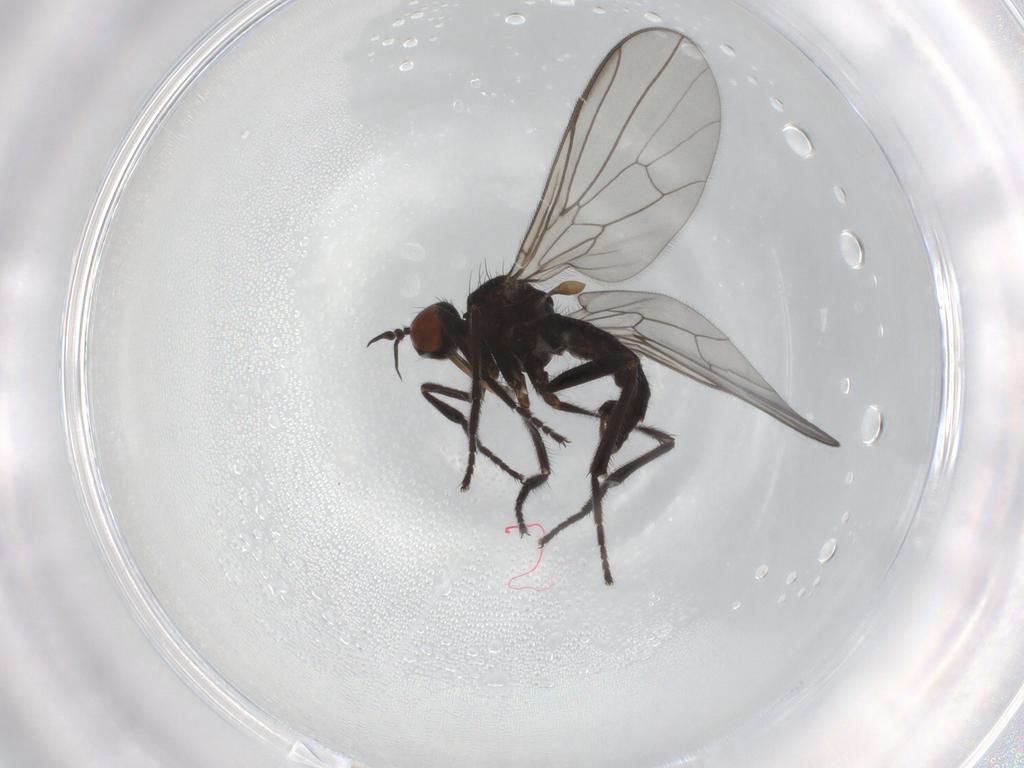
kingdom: Animalia
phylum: Arthropoda
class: Insecta
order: Diptera
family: Empididae
